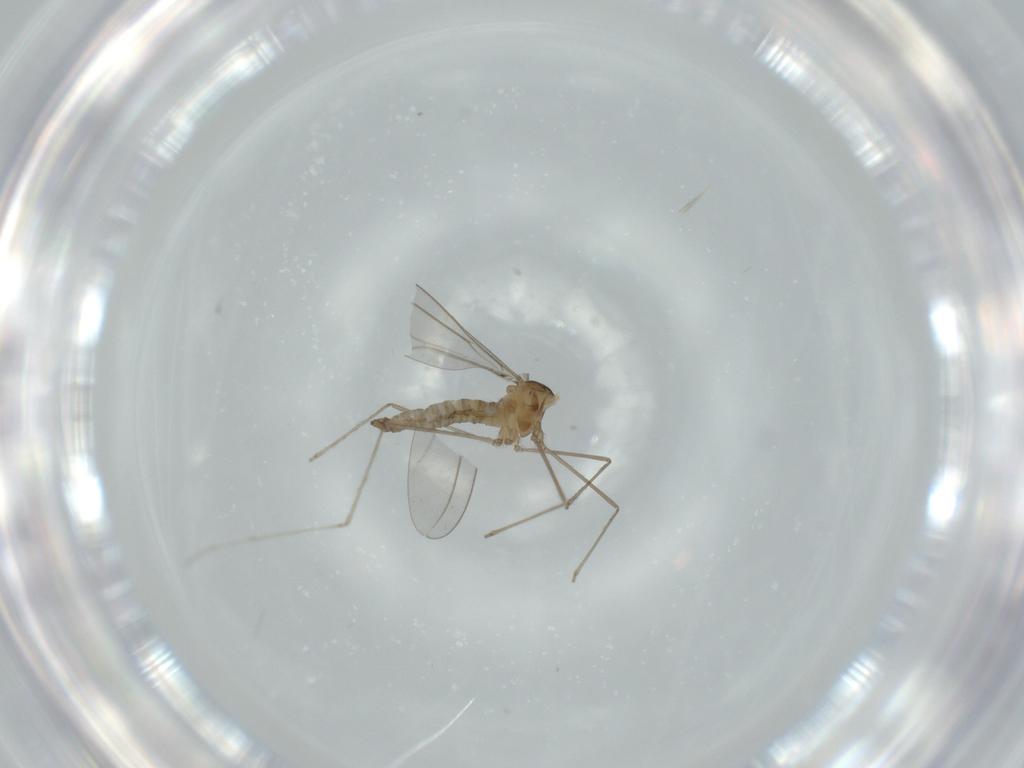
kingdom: Animalia
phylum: Arthropoda
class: Insecta
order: Diptera
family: Cecidomyiidae
